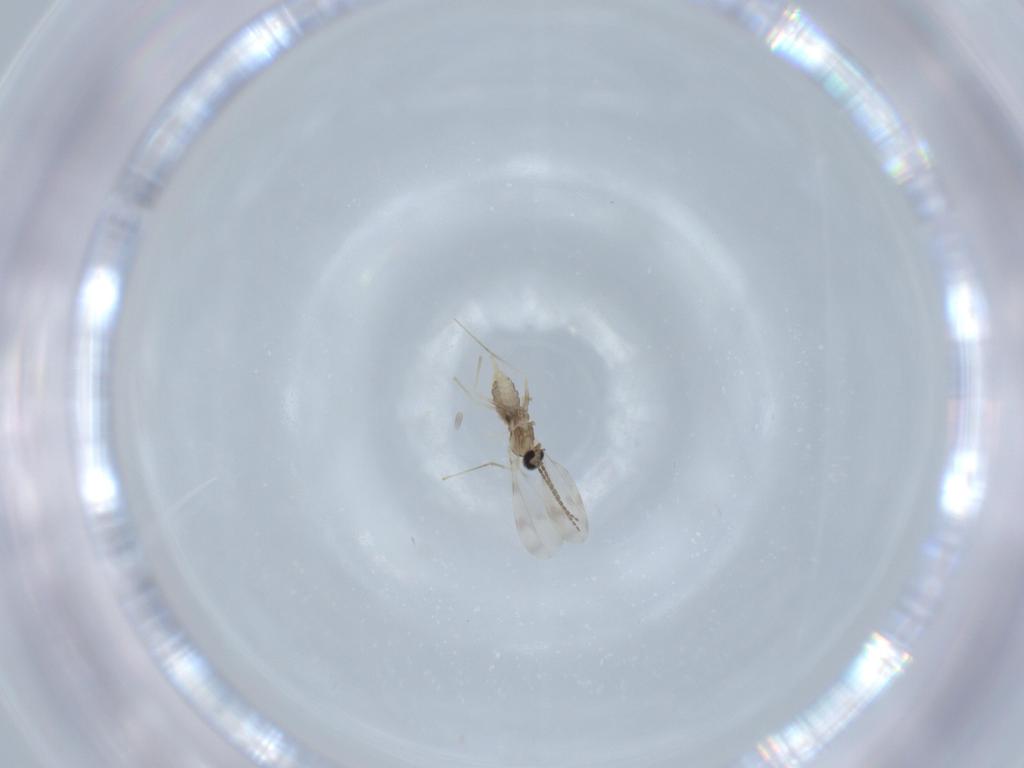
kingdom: Animalia
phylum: Arthropoda
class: Insecta
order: Diptera
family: Cecidomyiidae
